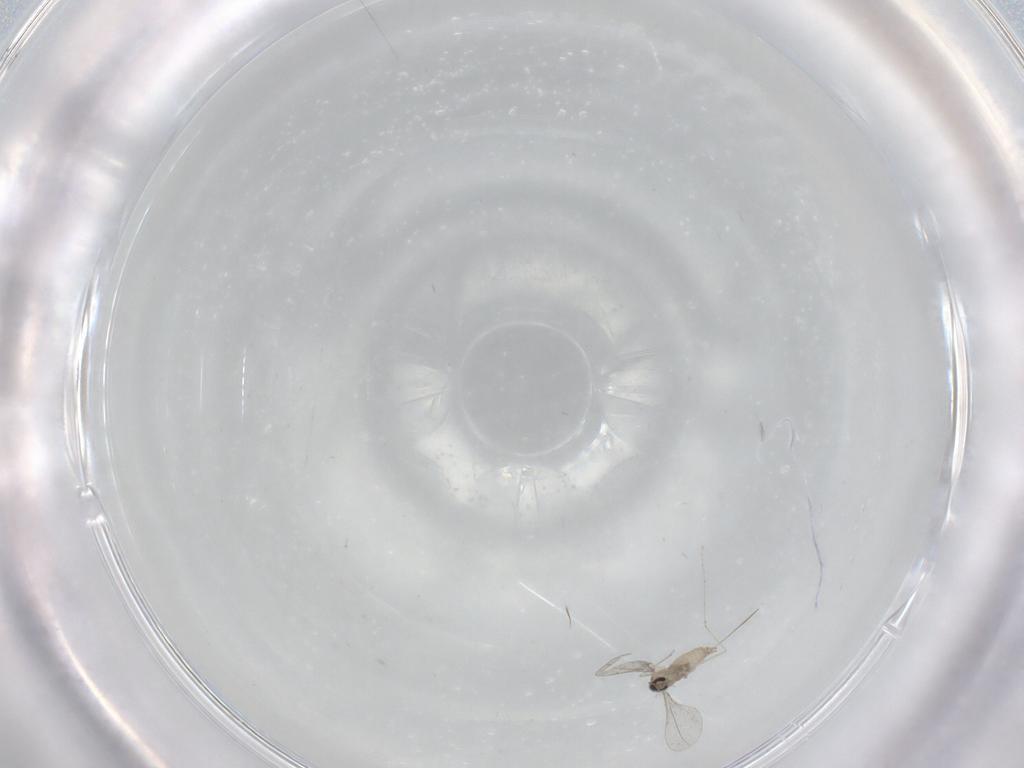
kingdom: Animalia
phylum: Arthropoda
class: Insecta
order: Diptera
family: Cecidomyiidae
